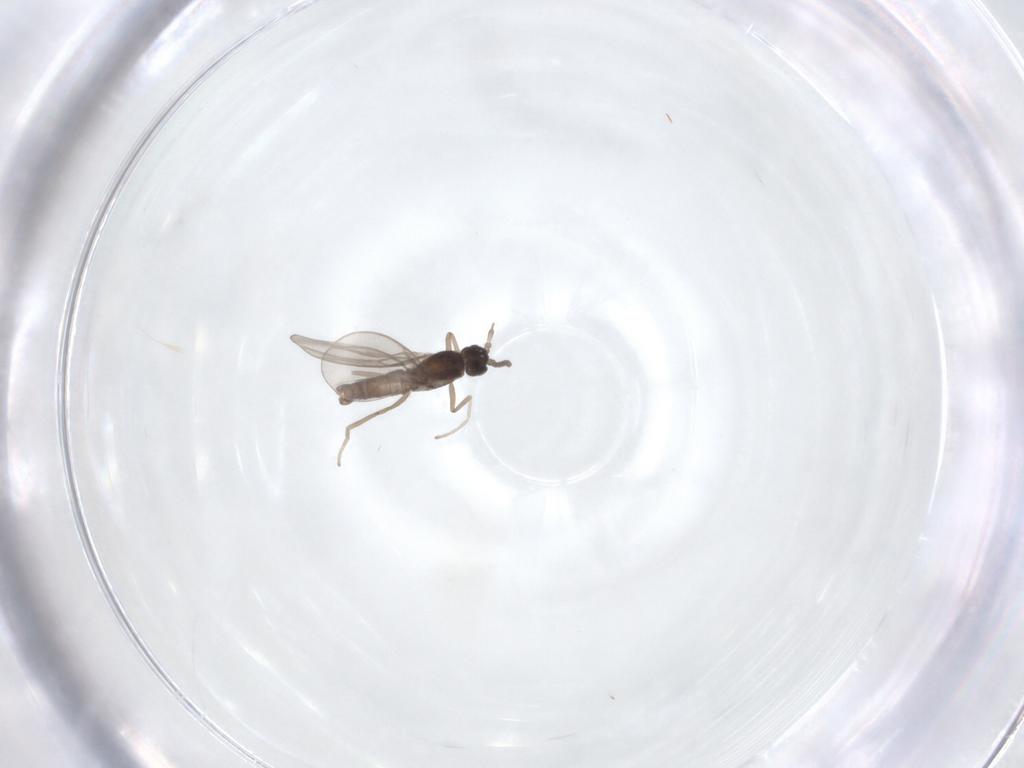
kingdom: Animalia
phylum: Arthropoda
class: Insecta
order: Diptera
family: Cecidomyiidae
